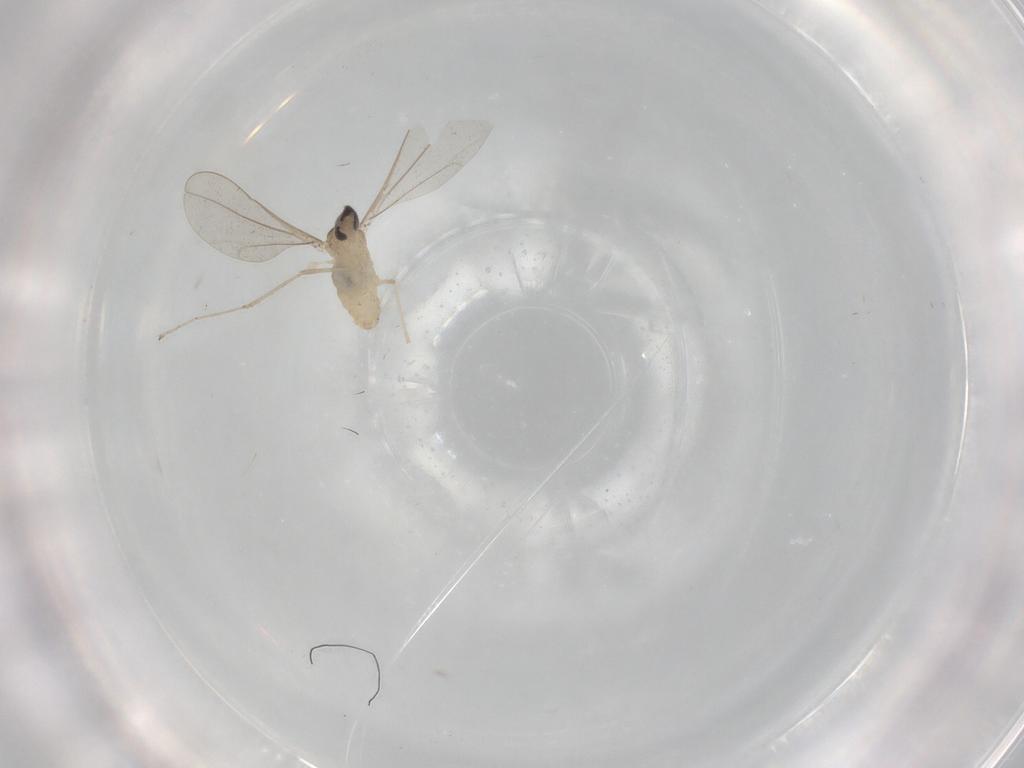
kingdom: Animalia
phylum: Arthropoda
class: Insecta
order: Diptera
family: Cecidomyiidae
